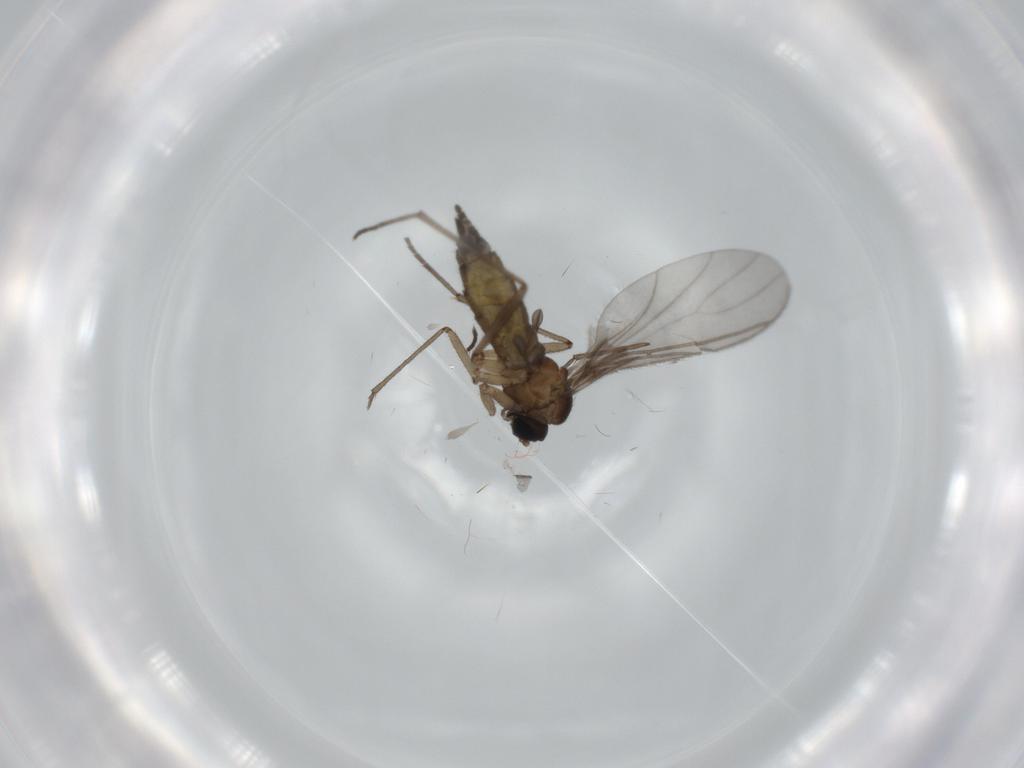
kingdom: Animalia
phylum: Arthropoda
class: Insecta
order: Diptera
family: Sciaridae
